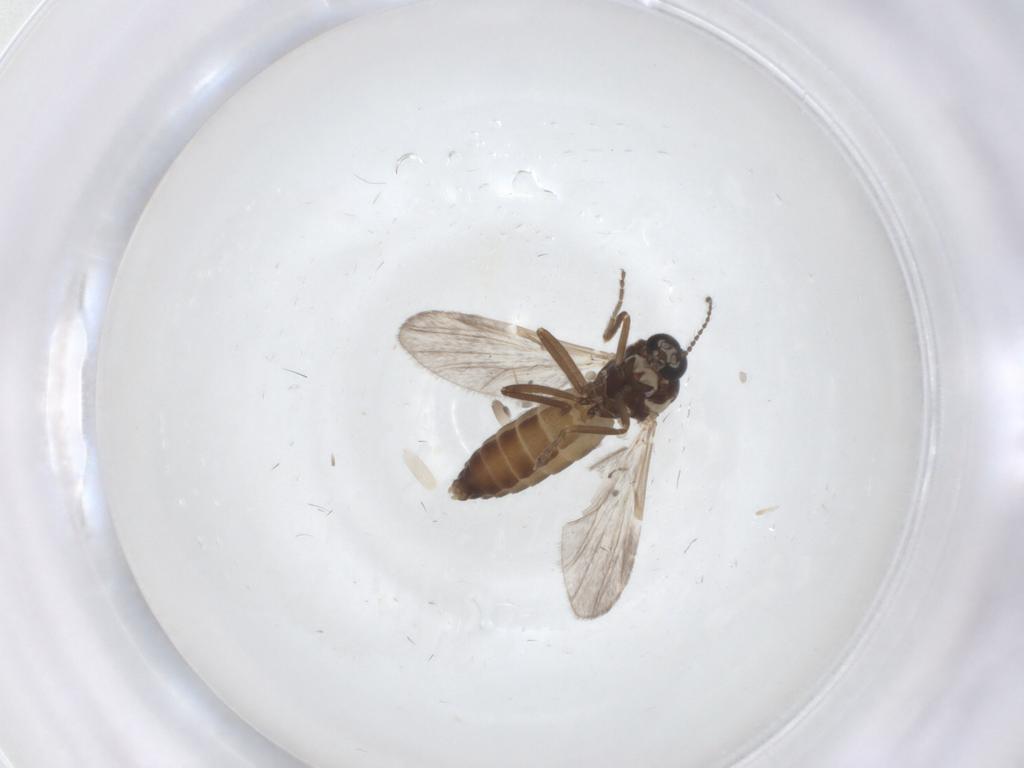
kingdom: Animalia
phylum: Arthropoda
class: Insecta
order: Diptera
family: Ceratopogonidae
